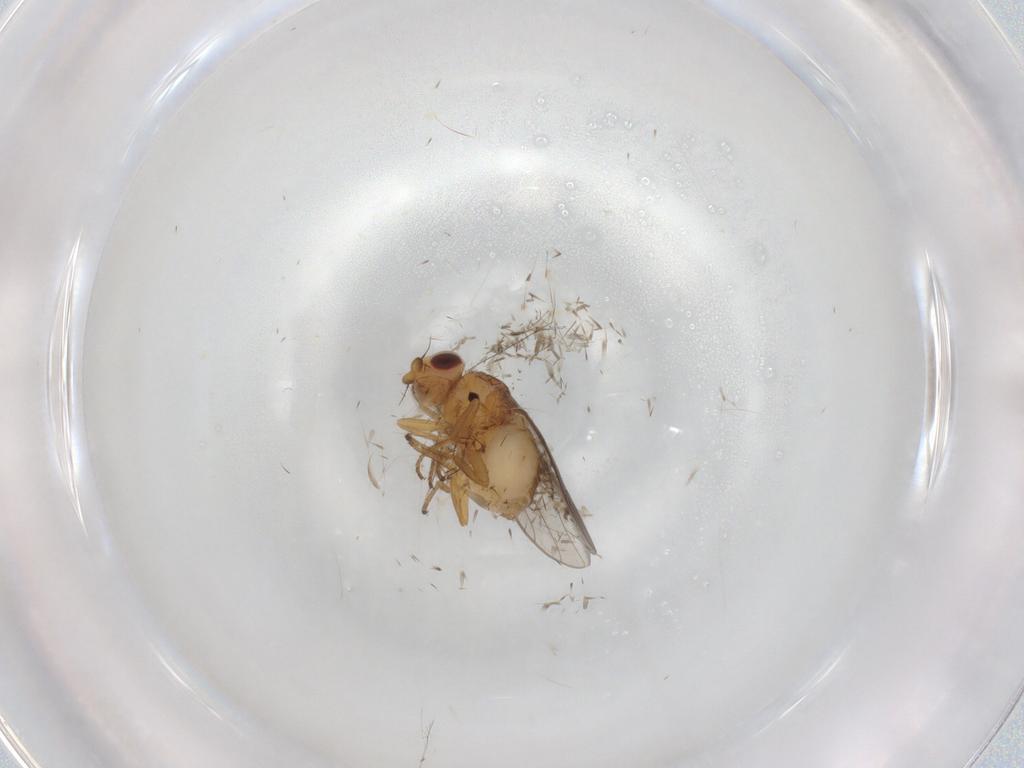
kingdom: Animalia
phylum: Arthropoda
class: Insecta
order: Diptera
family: Chloropidae
